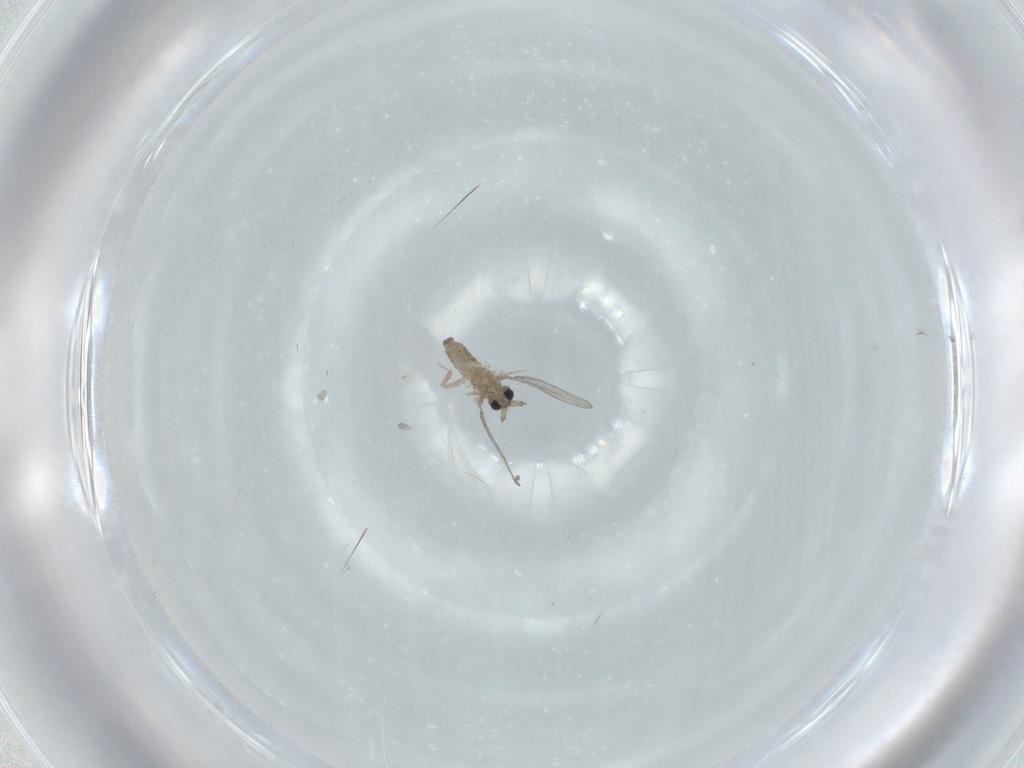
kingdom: Animalia
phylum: Arthropoda
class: Insecta
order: Diptera
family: Cecidomyiidae
